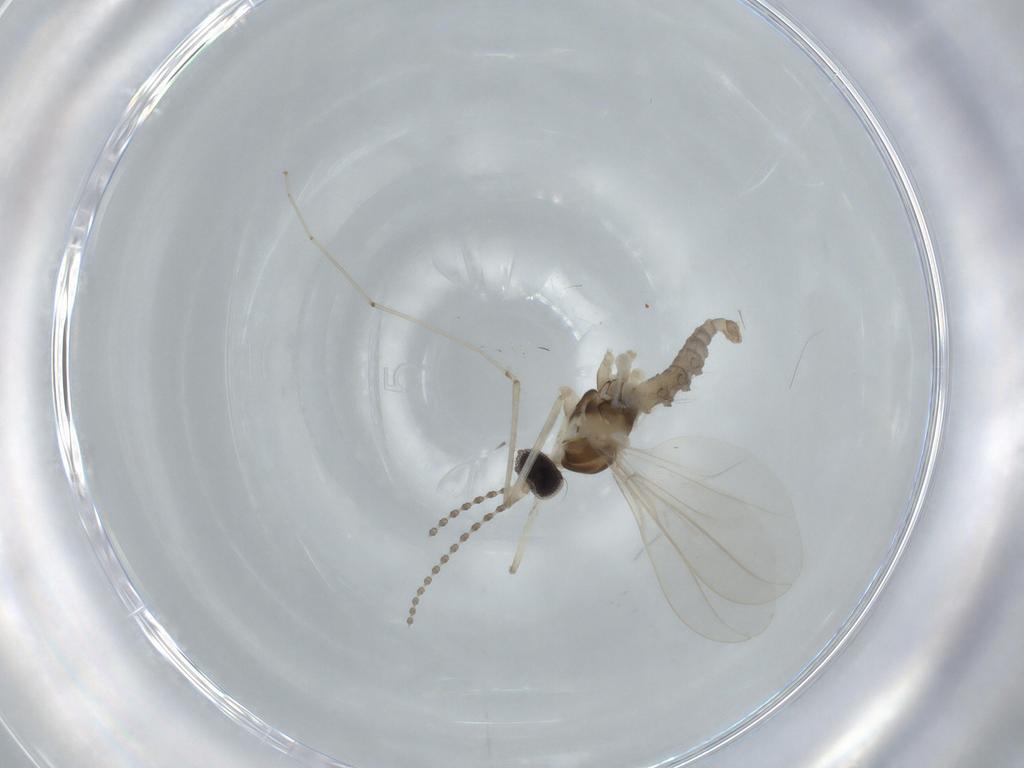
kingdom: Animalia
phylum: Arthropoda
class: Insecta
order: Diptera
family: Cecidomyiidae
